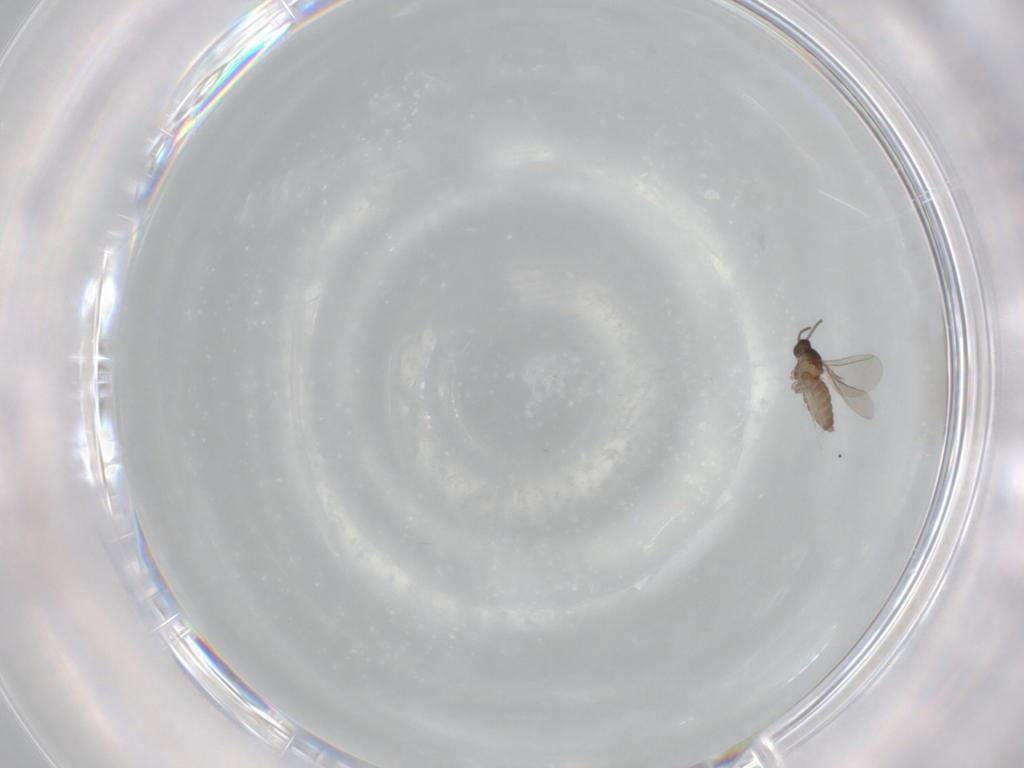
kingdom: Animalia
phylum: Arthropoda
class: Insecta
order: Diptera
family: Cecidomyiidae
